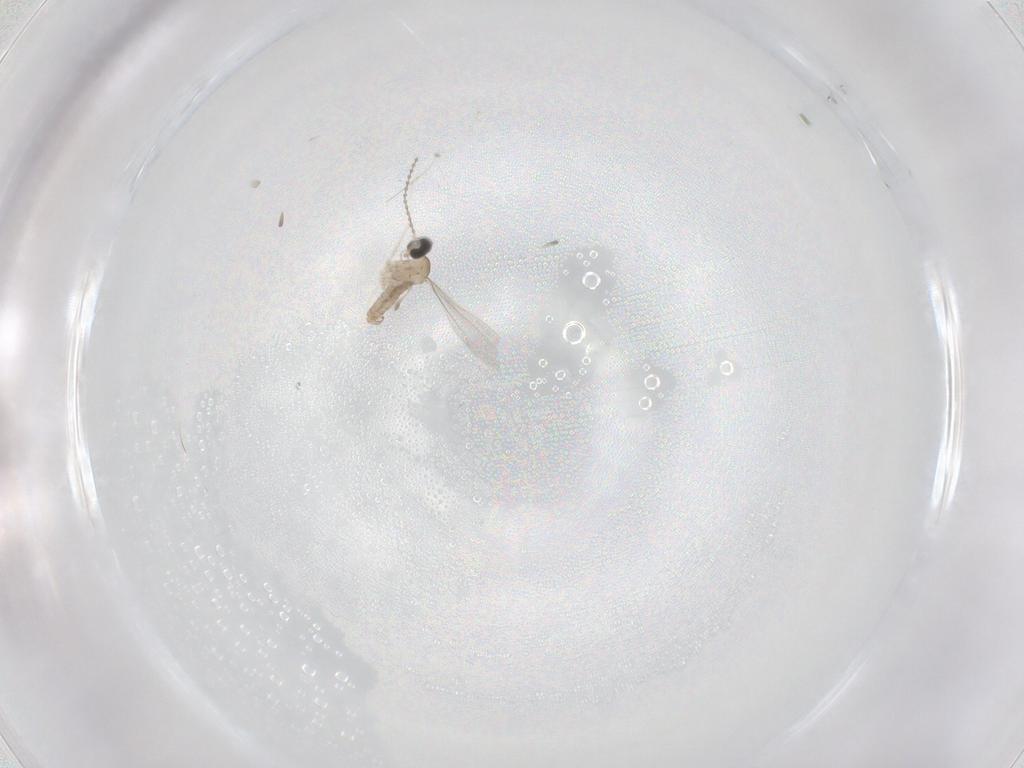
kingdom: Animalia
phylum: Arthropoda
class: Insecta
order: Diptera
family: Cecidomyiidae
